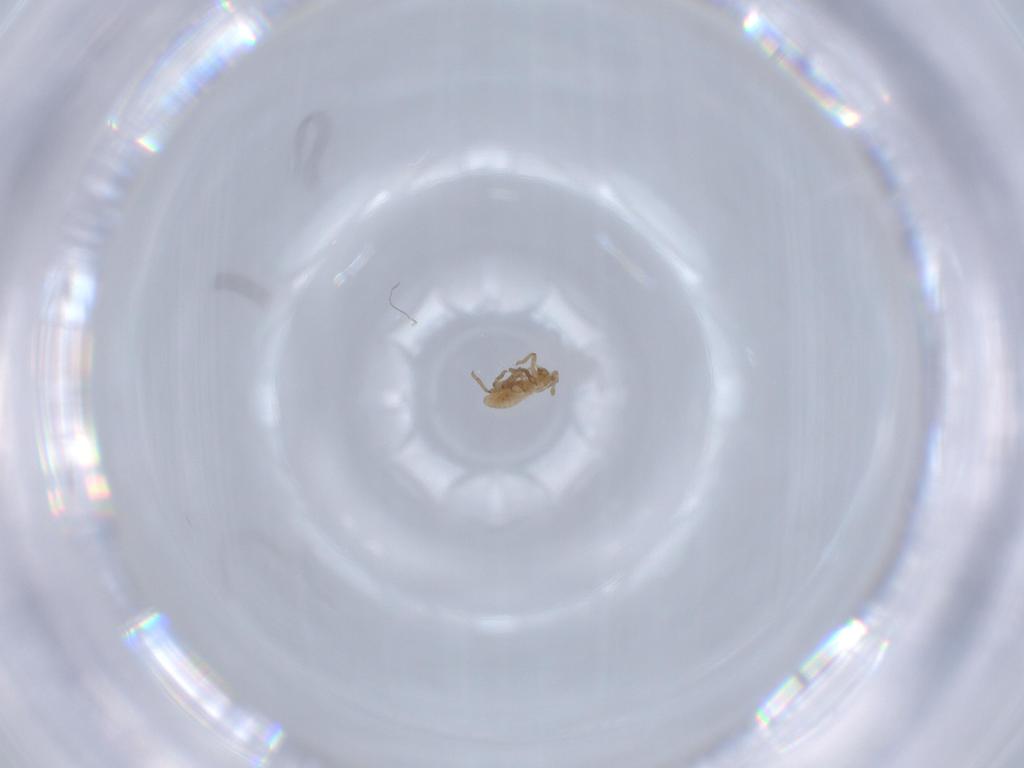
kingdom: Animalia
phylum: Arthropoda
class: Insecta
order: Hemiptera
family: Aphididae
